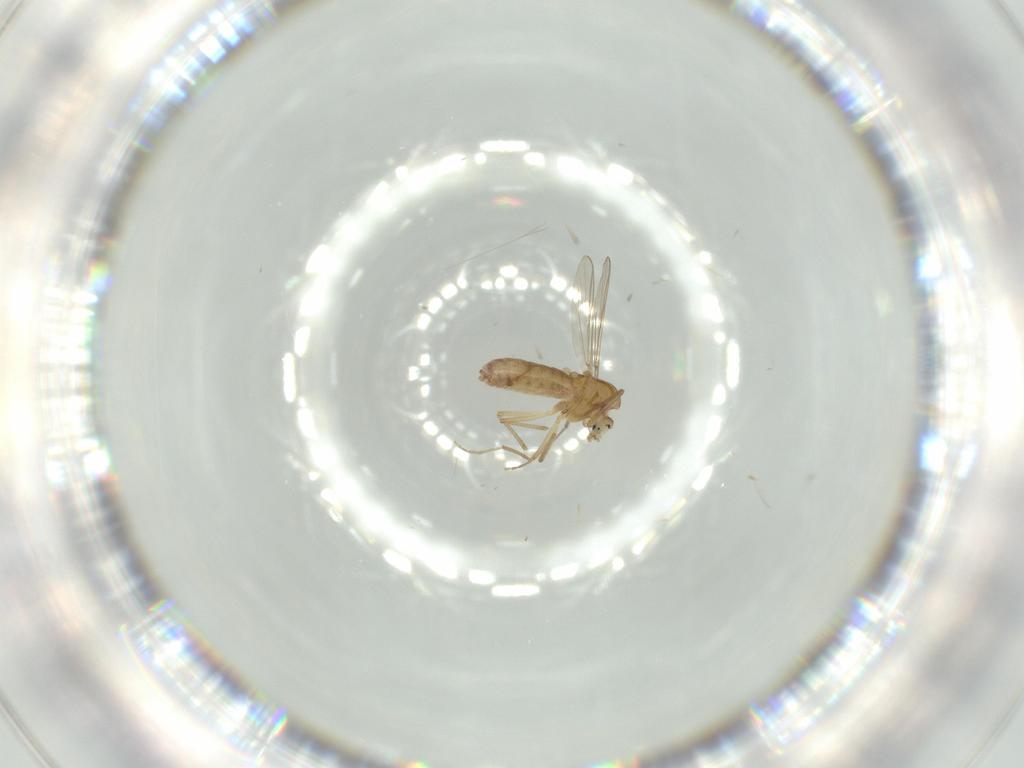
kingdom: Animalia
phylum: Arthropoda
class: Insecta
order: Diptera
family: Chironomidae
